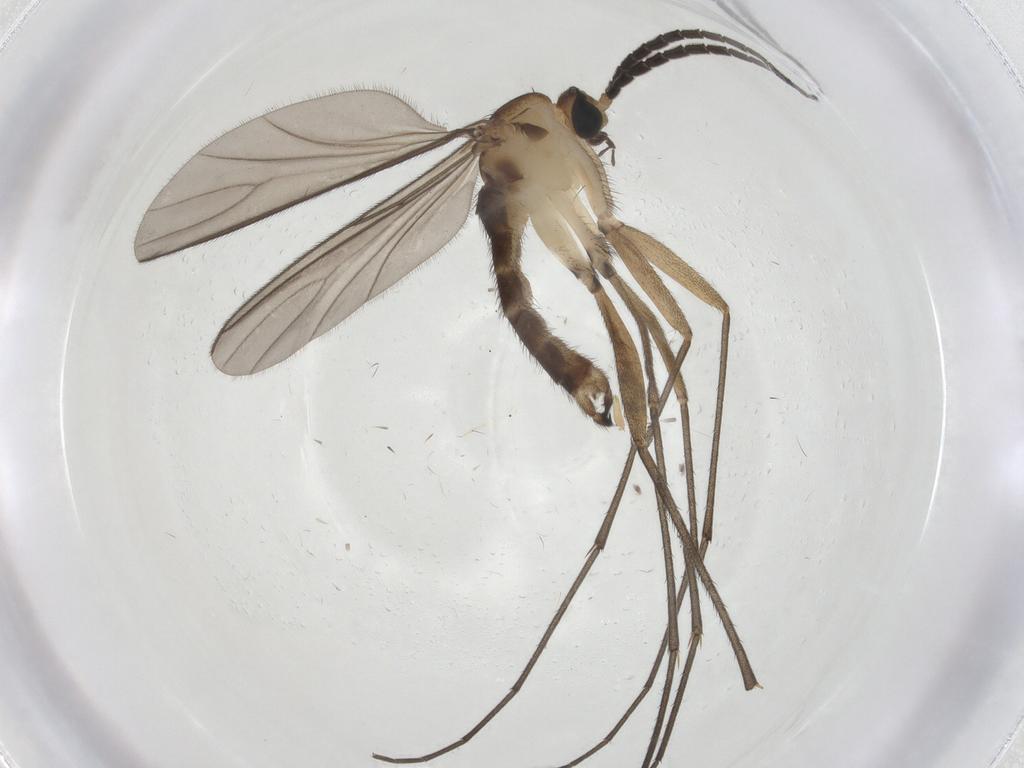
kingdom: Animalia
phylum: Arthropoda
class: Insecta
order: Diptera
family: Sciaridae
